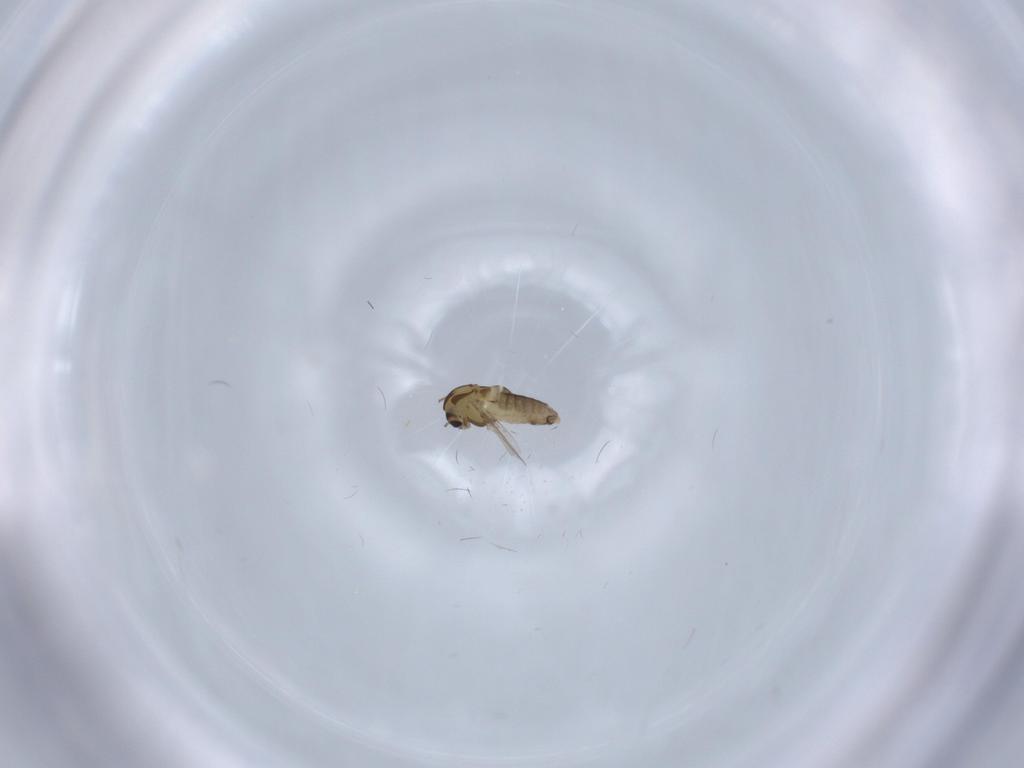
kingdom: Animalia
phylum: Arthropoda
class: Insecta
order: Diptera
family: Chironomidae
